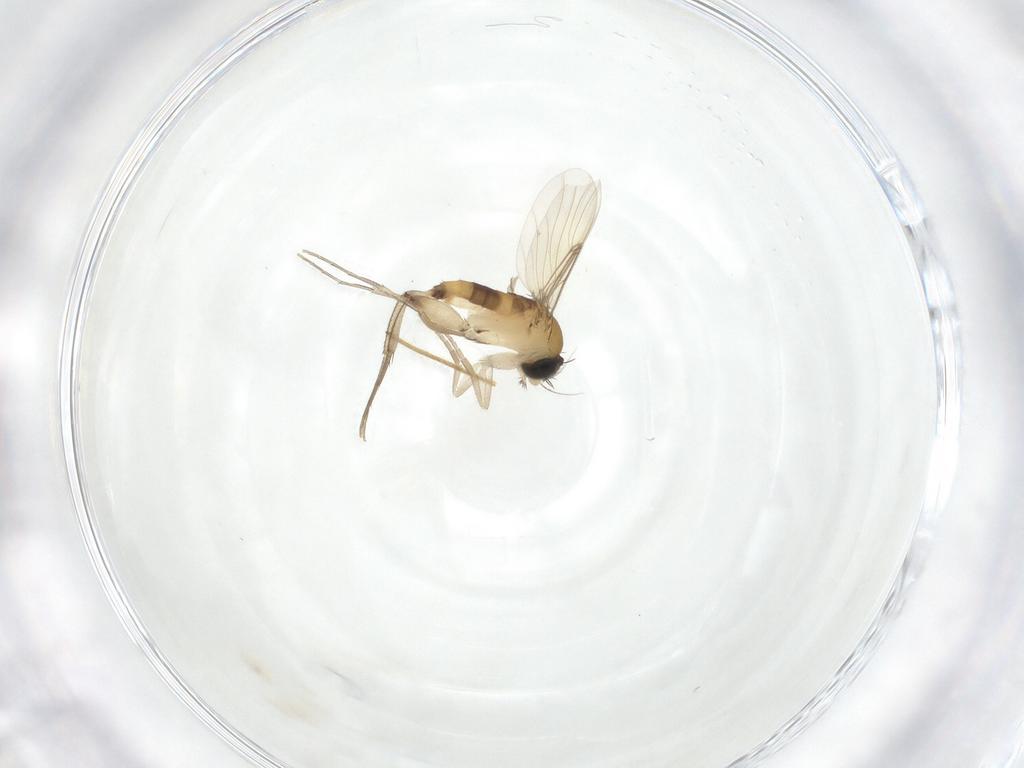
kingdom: Animalia
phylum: Arthropoda
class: Insecta
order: Diptera
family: Phoridae
